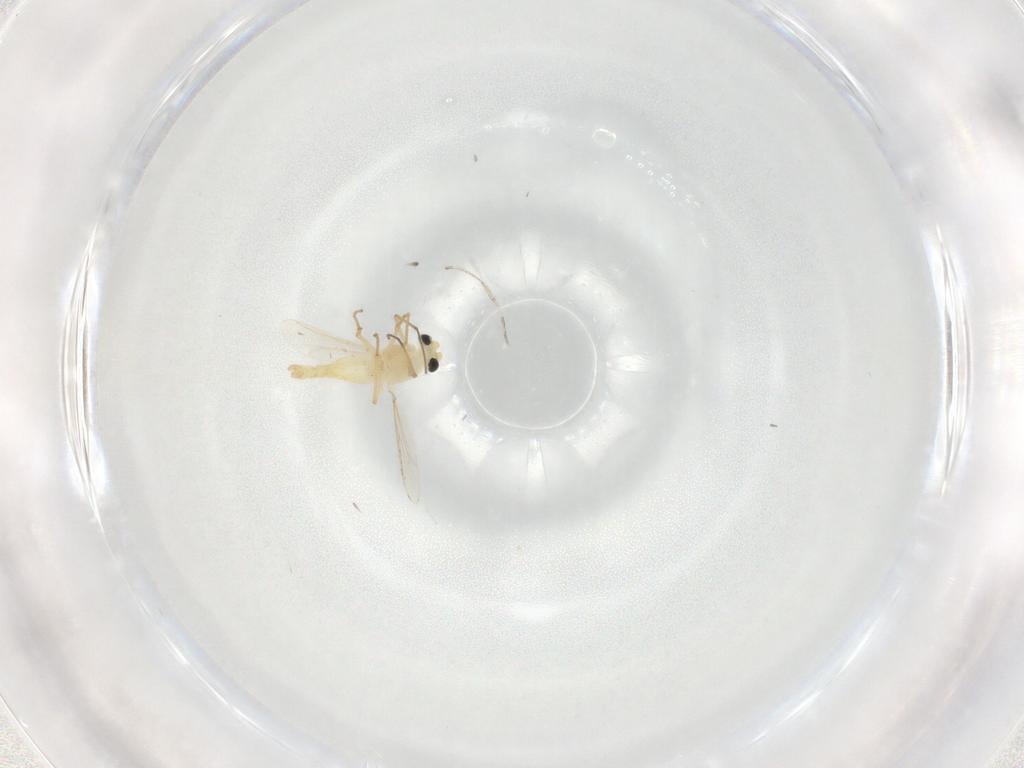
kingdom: Animalia
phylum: Arthropoda
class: Insecta
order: Diptera
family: Chironomidae
